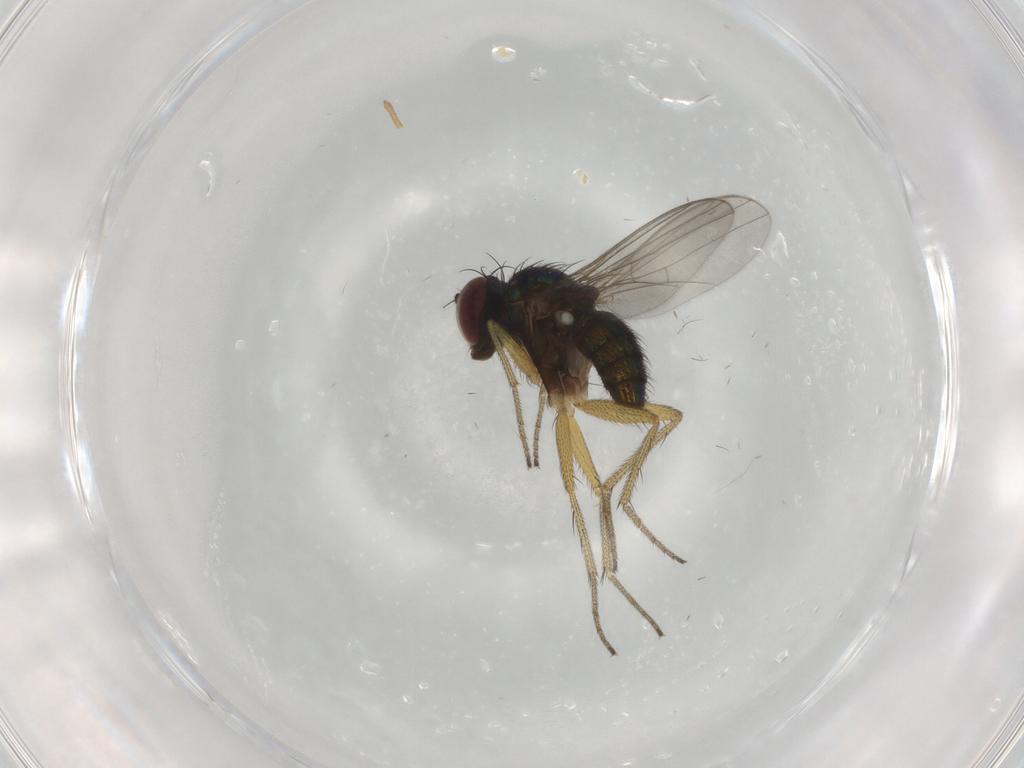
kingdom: Animalia
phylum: Arthropoda
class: Insecta
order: Diptera
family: Dolichopodidae
